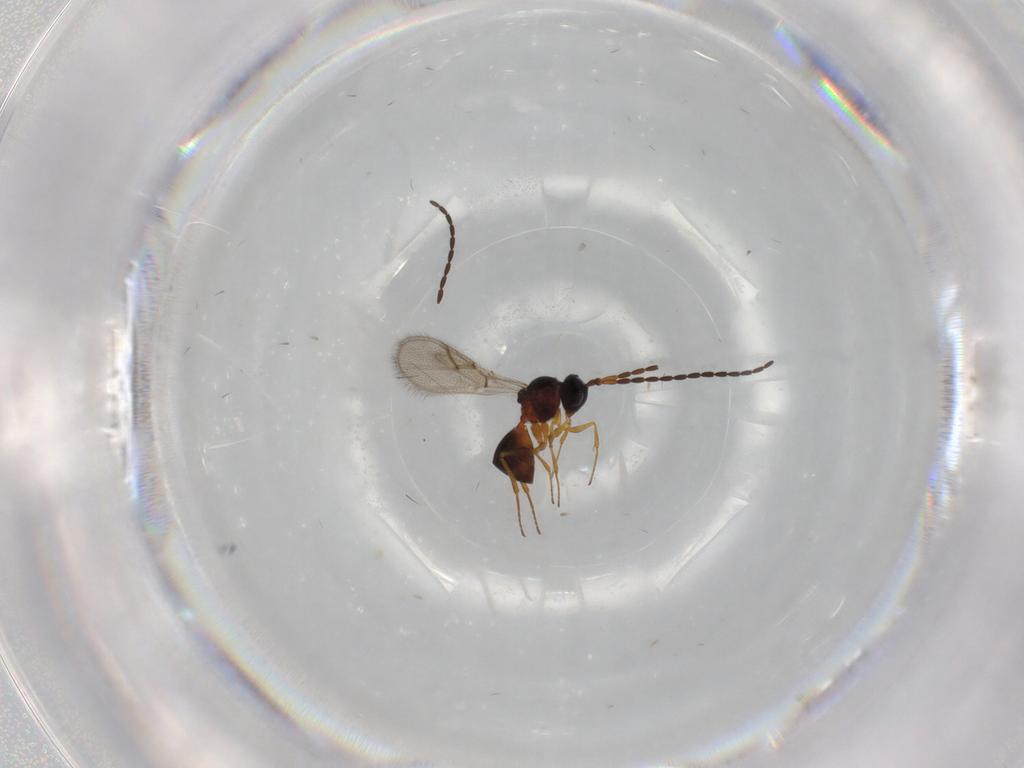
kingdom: Animalia
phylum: Arthropoda
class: Insecta
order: Hymenoptera
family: Figitidae
